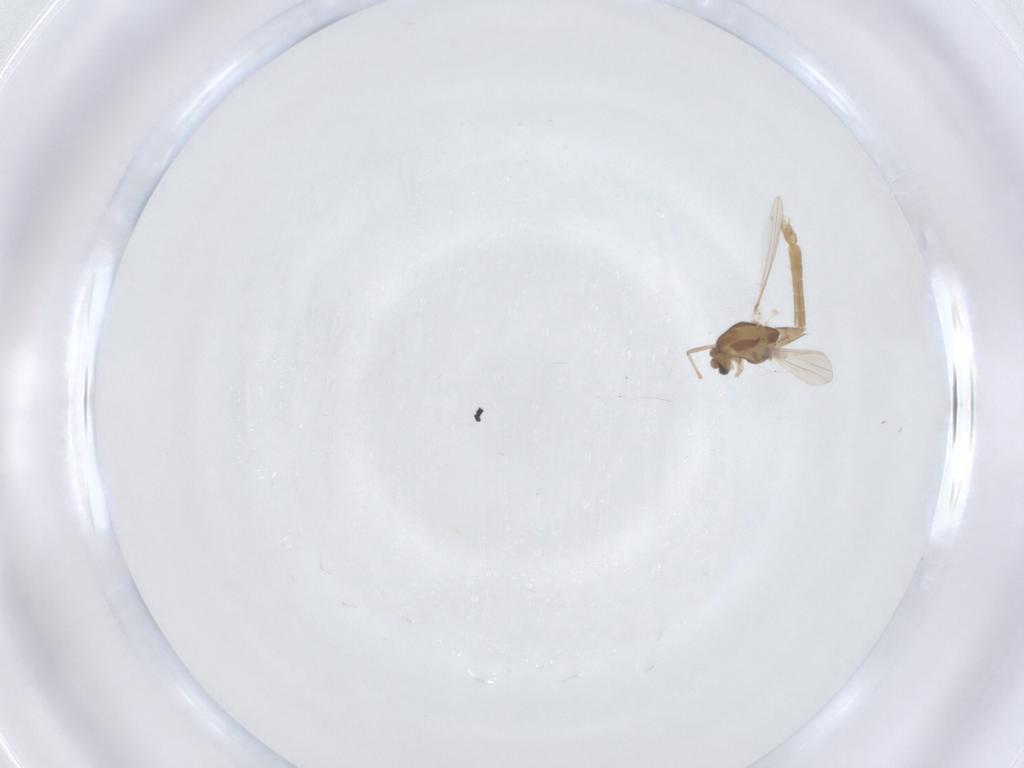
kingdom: Animalia
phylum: Arthropoda
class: Insecta
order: Diptera
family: Chironomidae
